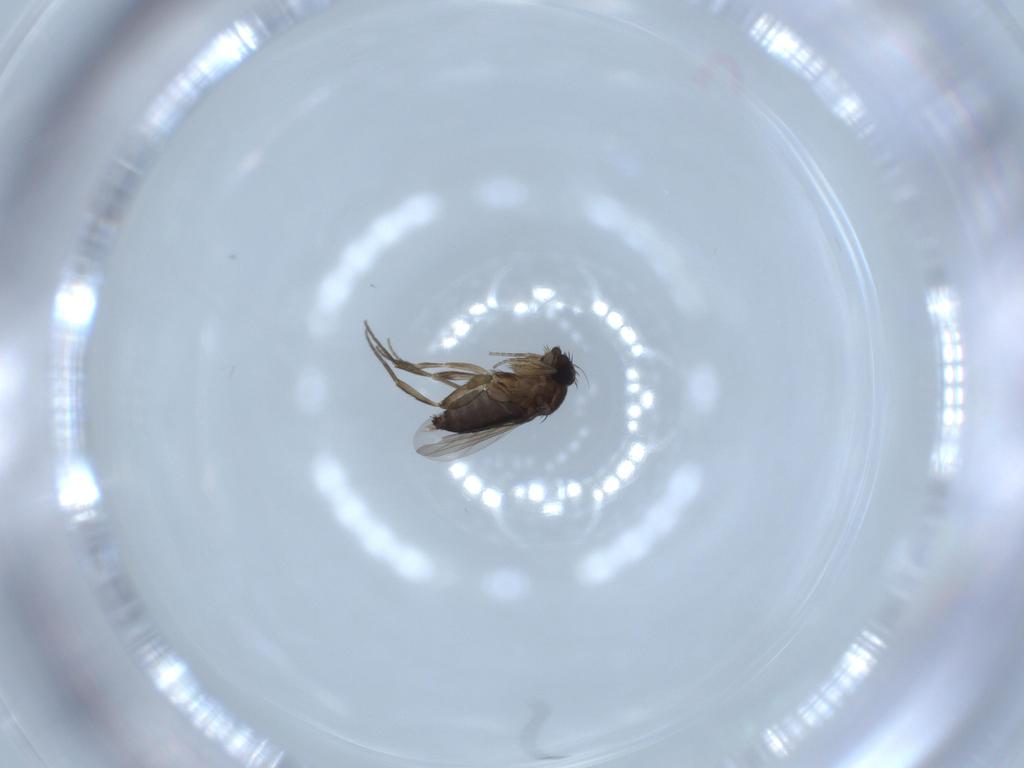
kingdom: Animalia
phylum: Arthropoda
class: Insecta
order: Diptera
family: Phoridae
